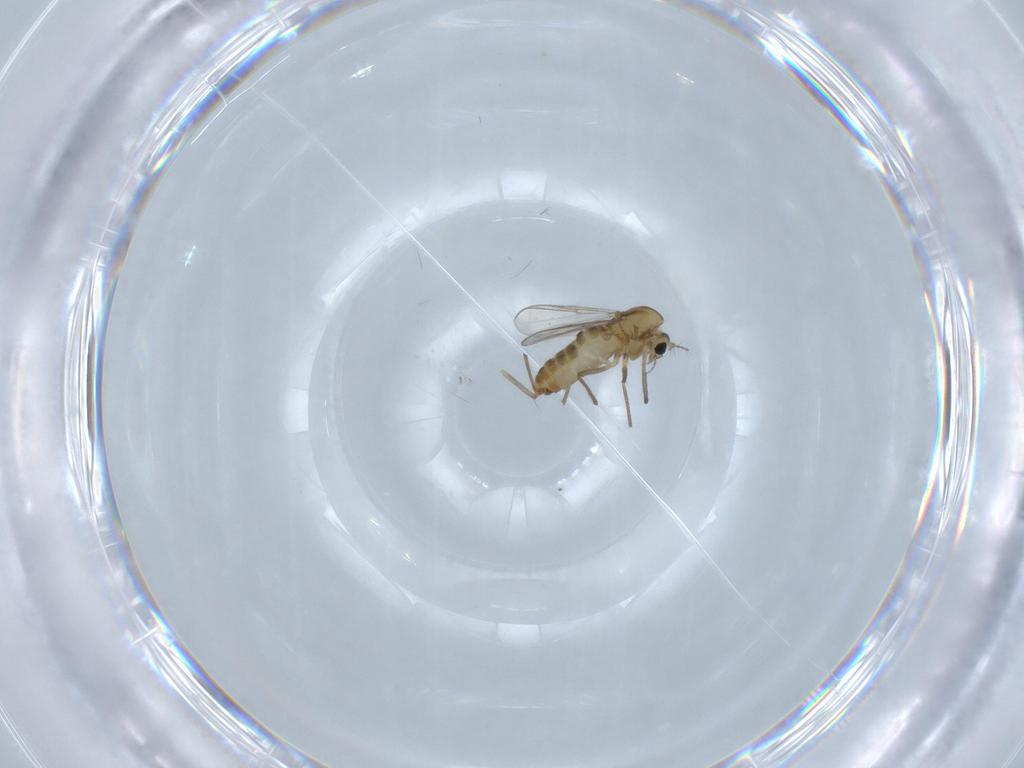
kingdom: Animalia
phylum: Arthropoda
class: Insecta
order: Diptera
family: Chironomidae
